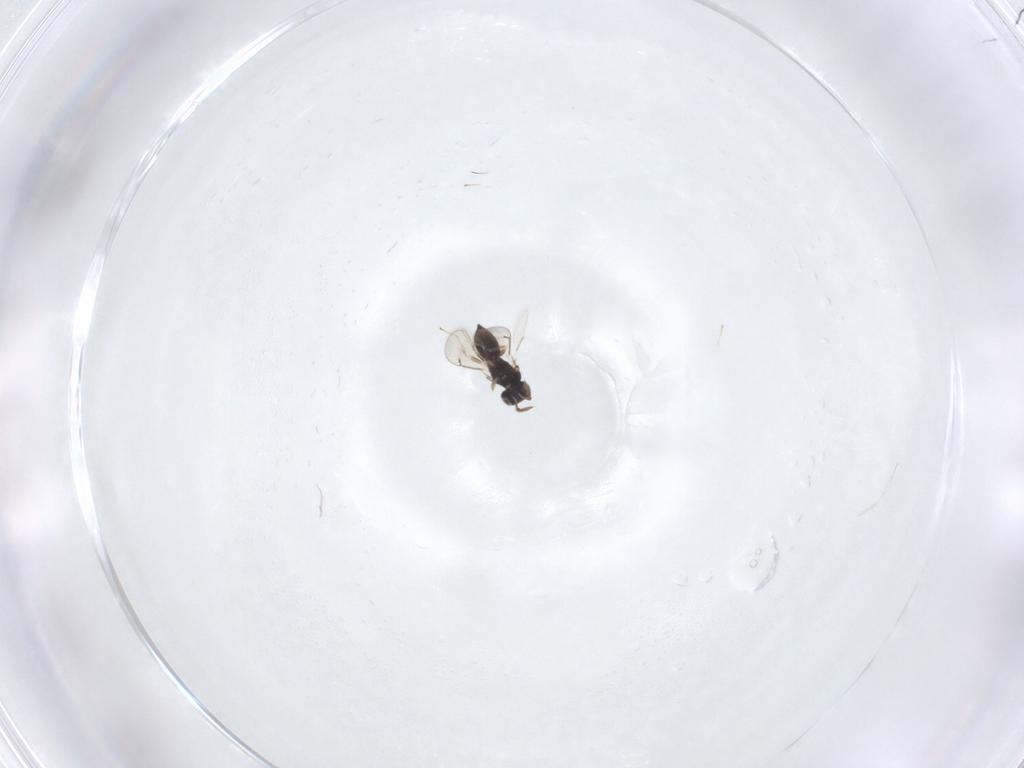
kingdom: Animalia
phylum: Arthropoda
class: Insecta
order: Hymenoptera
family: Eulophidae
